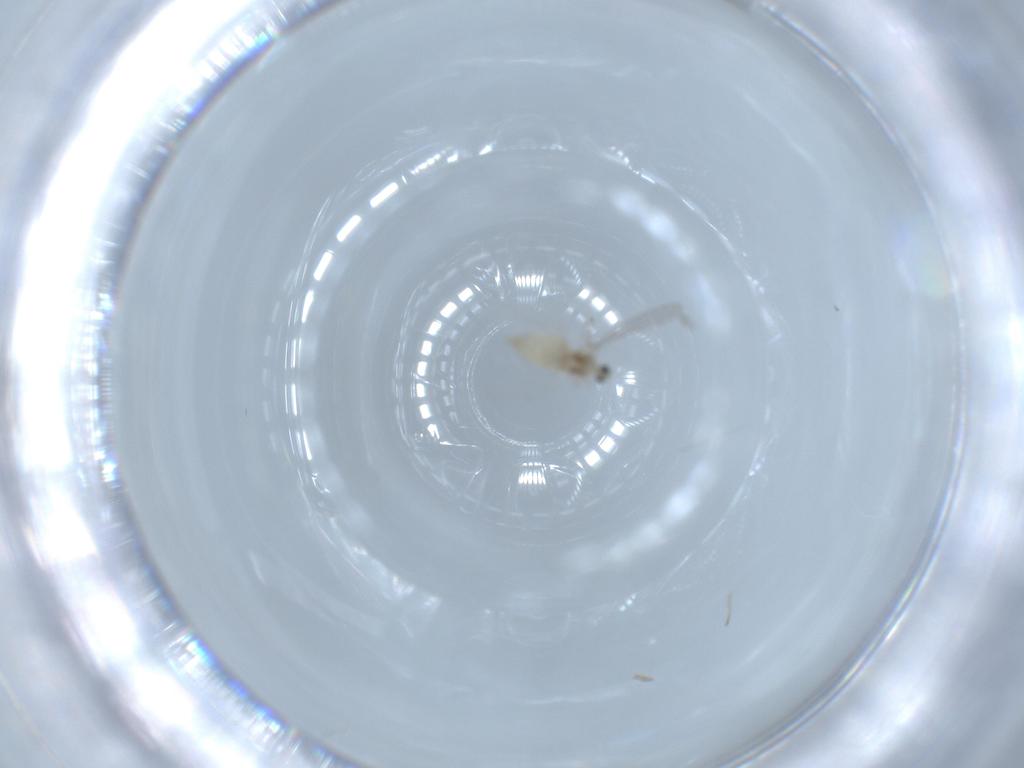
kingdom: Animalia
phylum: Arthropoda
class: Insecta
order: Diptera
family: Cecidomyiidae
